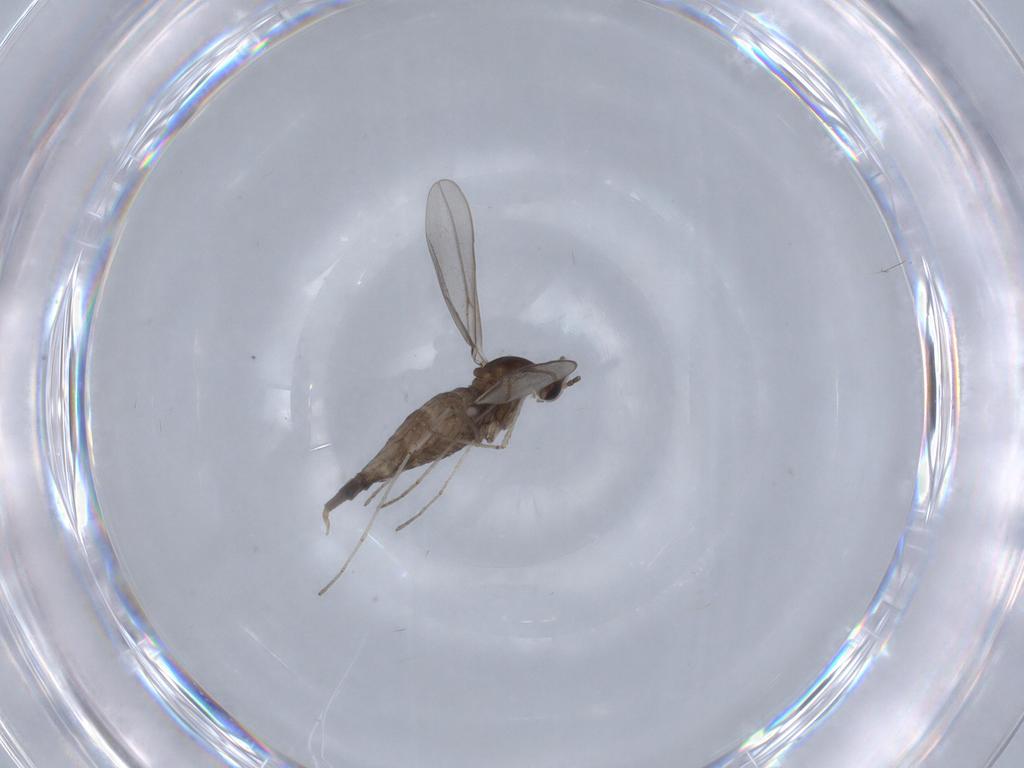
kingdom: Animalia
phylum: Arthropoda
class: Insecta
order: Diptera
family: Cecidomyiidae
